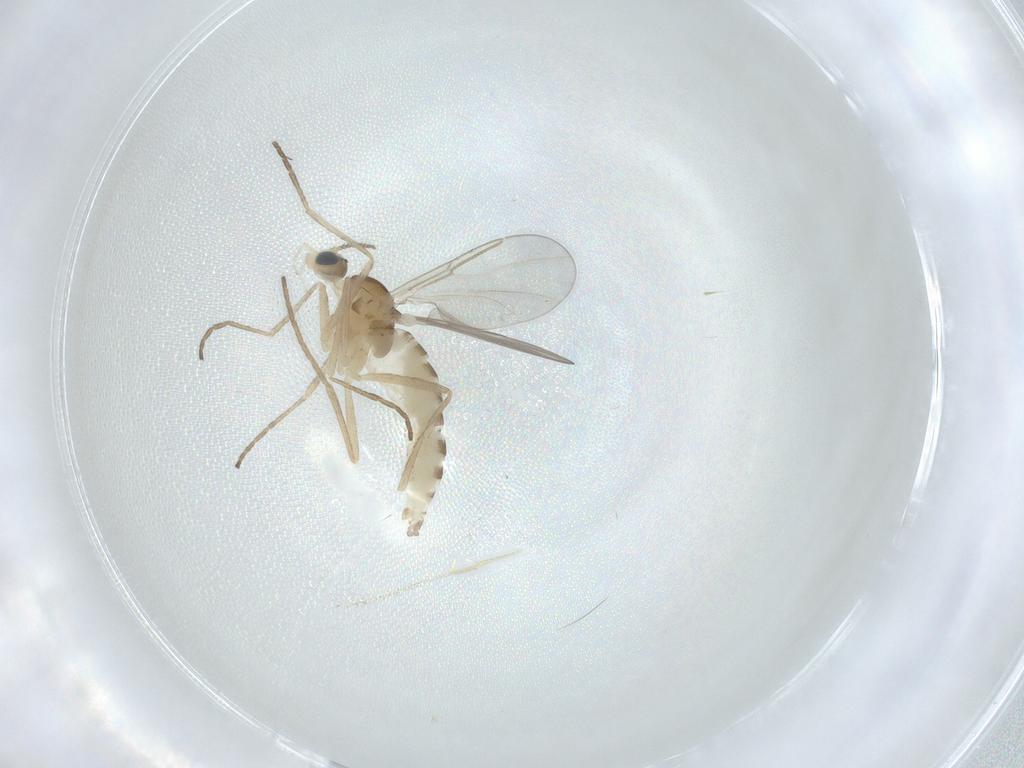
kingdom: Animalia
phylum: Arthropoda
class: Insecta
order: Diptera
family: Cecidomyiidae
